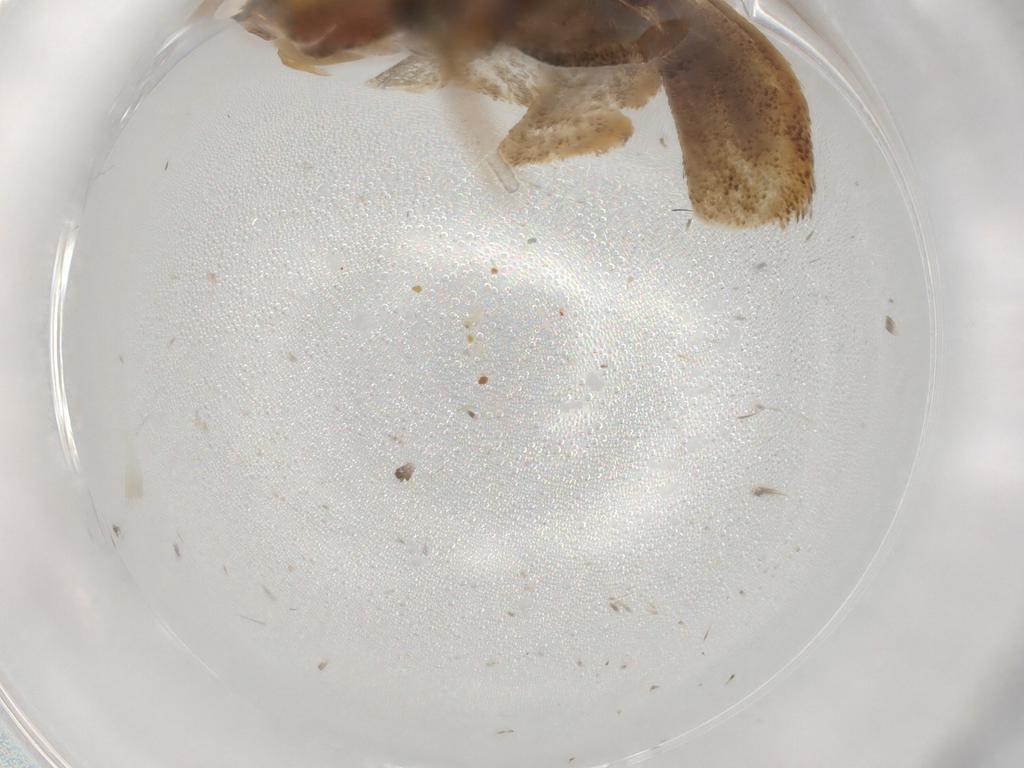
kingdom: Animalia
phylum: Arthropoda
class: Insecta
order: Lepidoptera
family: Lecithoceridae
